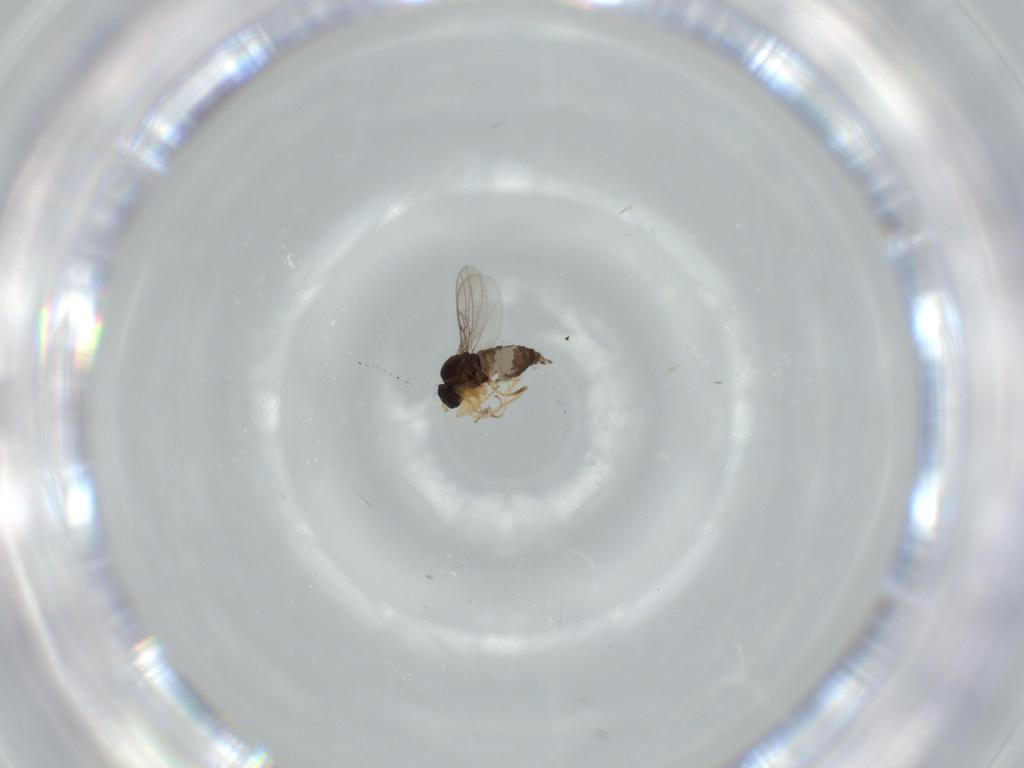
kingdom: Animalia
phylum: Arthropoda
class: Insecta
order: Diptera
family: Hybotidae
